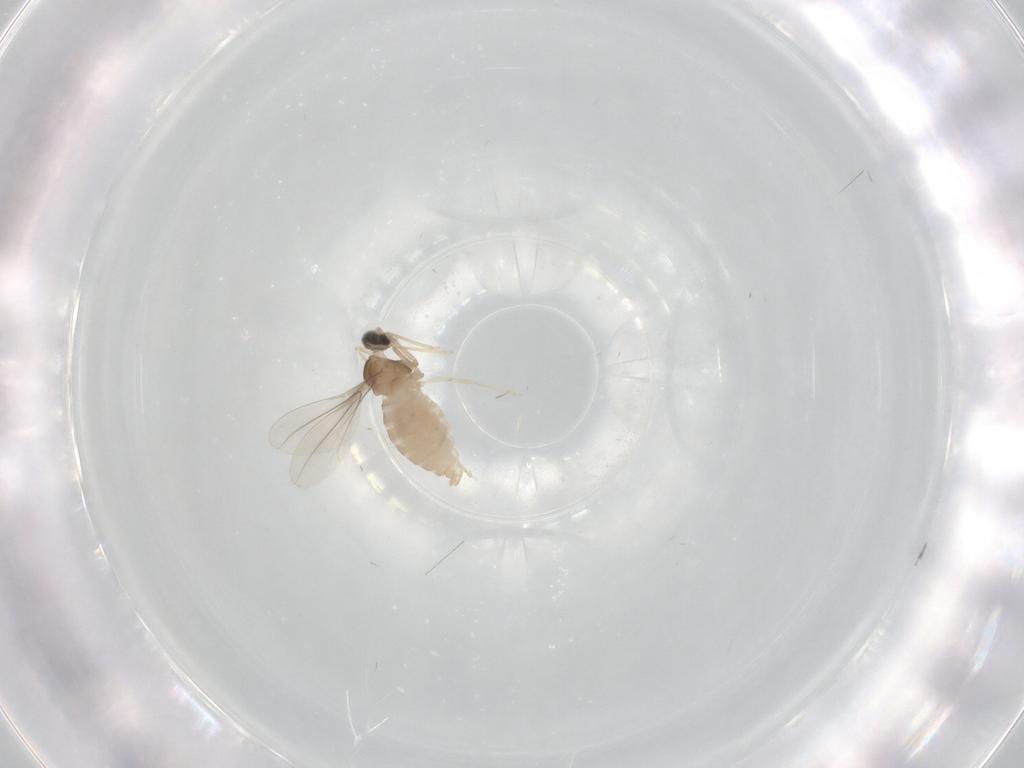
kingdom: Animalia
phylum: Arthropoda
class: Insecta
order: Diptera
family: Cecidomyiidae
